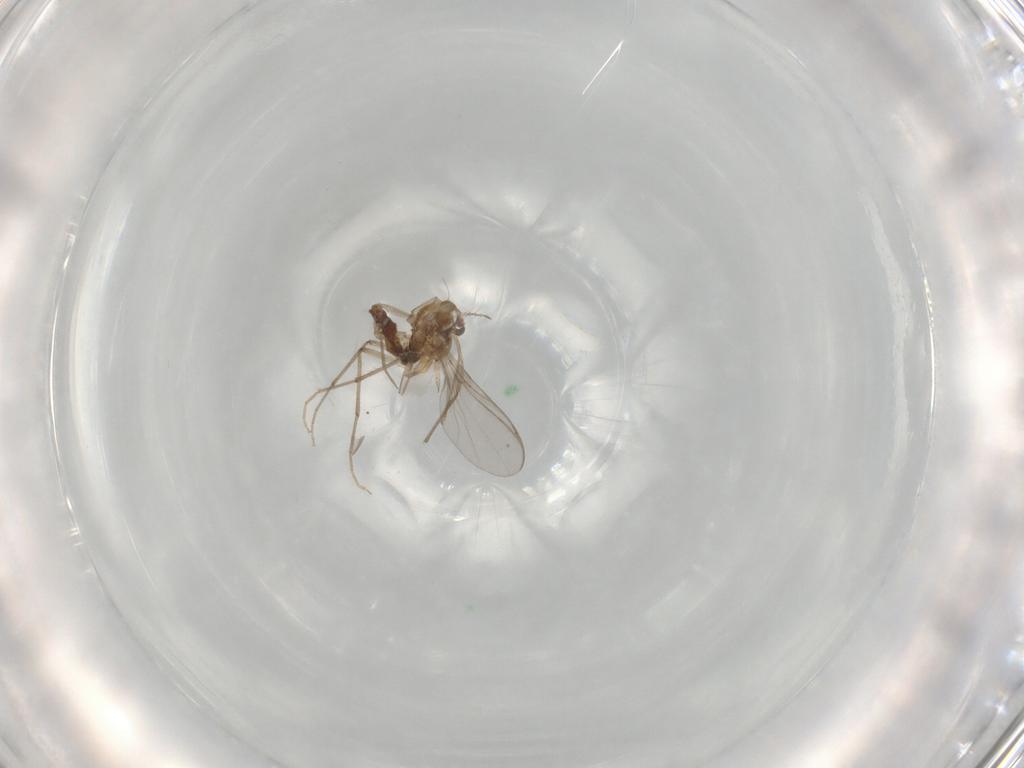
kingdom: Animalia
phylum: Arthropoda
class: Insecta
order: Diptera
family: Chironomidae
